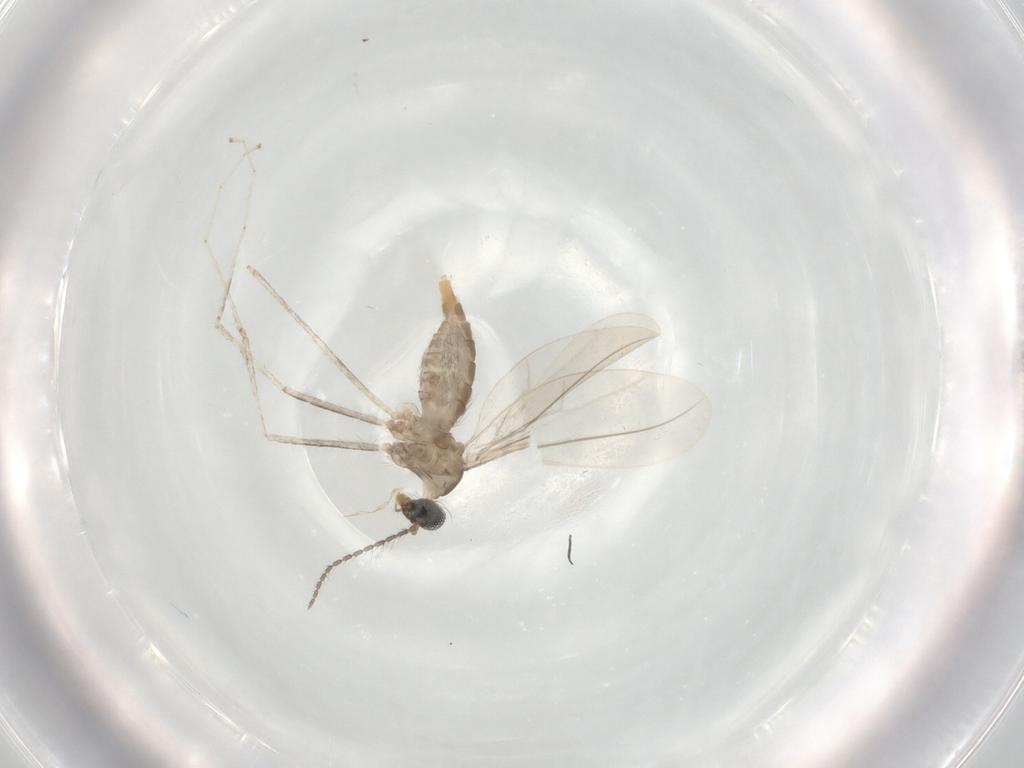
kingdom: Animalia
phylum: Arthropoda
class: Insecta
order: Diptera
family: Cecidomyiidae
